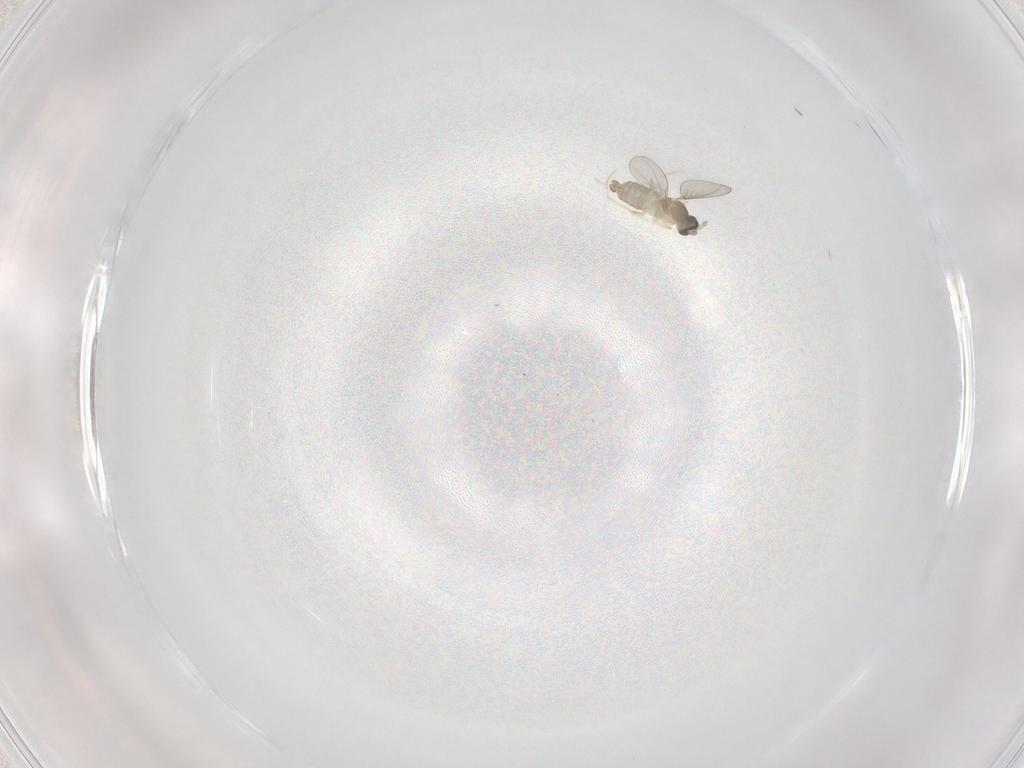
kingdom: Animalia
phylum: Arthropoda
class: Insecta
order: Diptera
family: Cecidomyiidae
